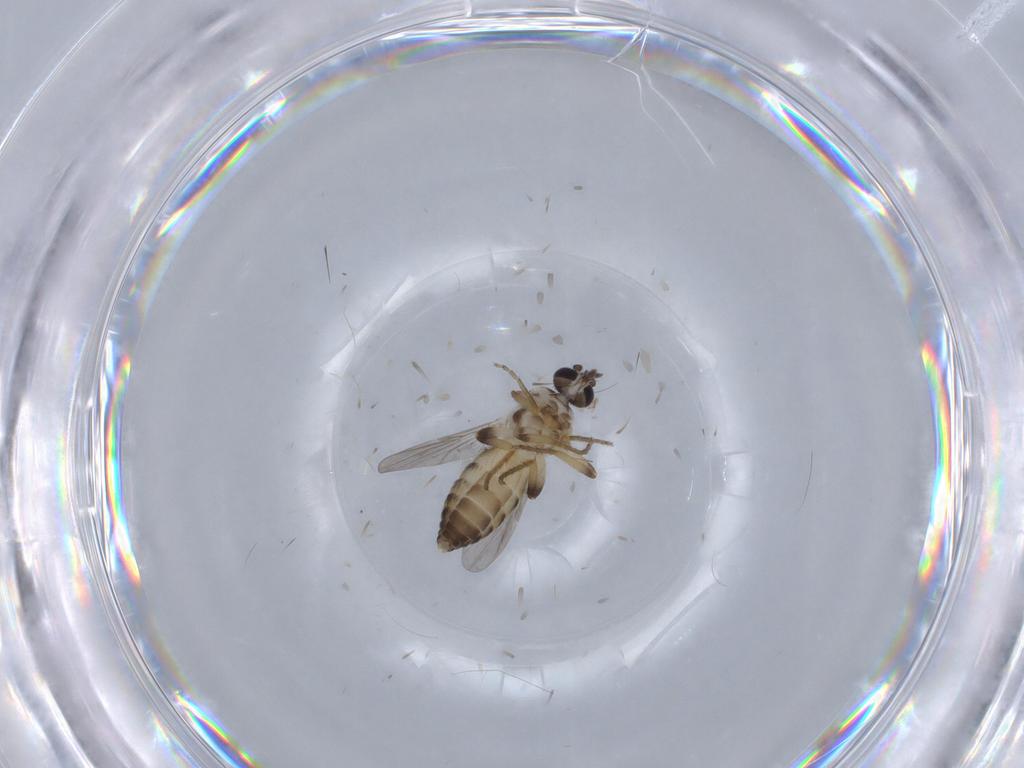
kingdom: Animalia
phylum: Arthropoda
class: Insecta
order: Diptera
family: Ceratopogonidae
